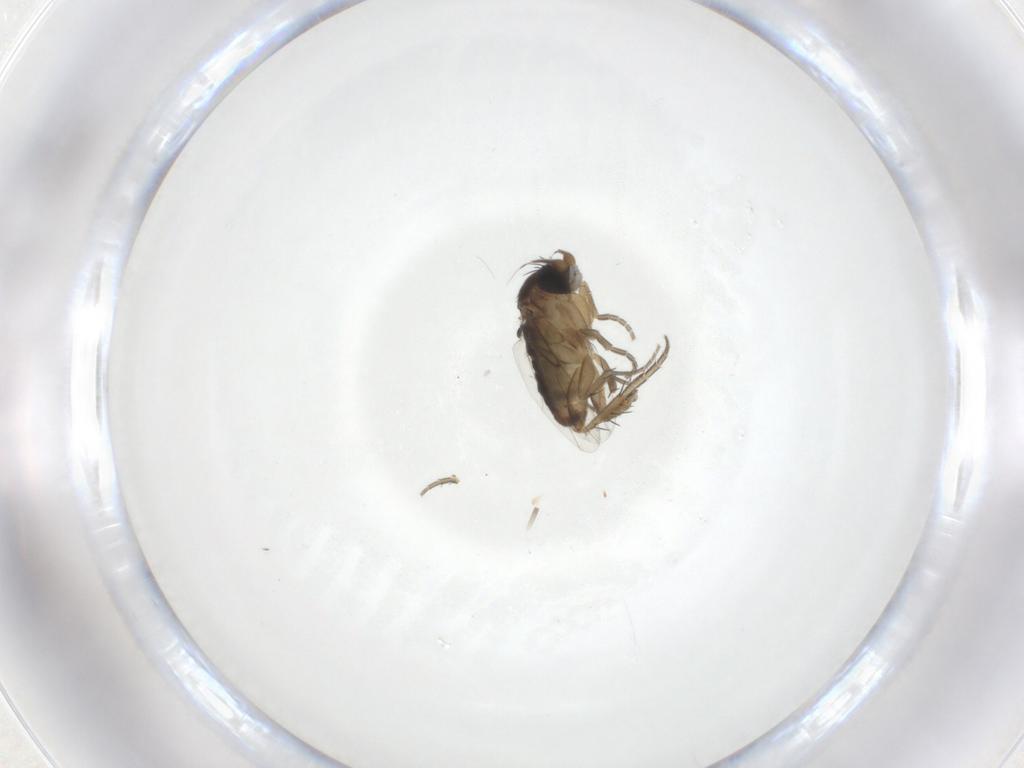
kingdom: Animalia
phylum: Arthropoda
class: Insecta
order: Diptera
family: Phoridae
